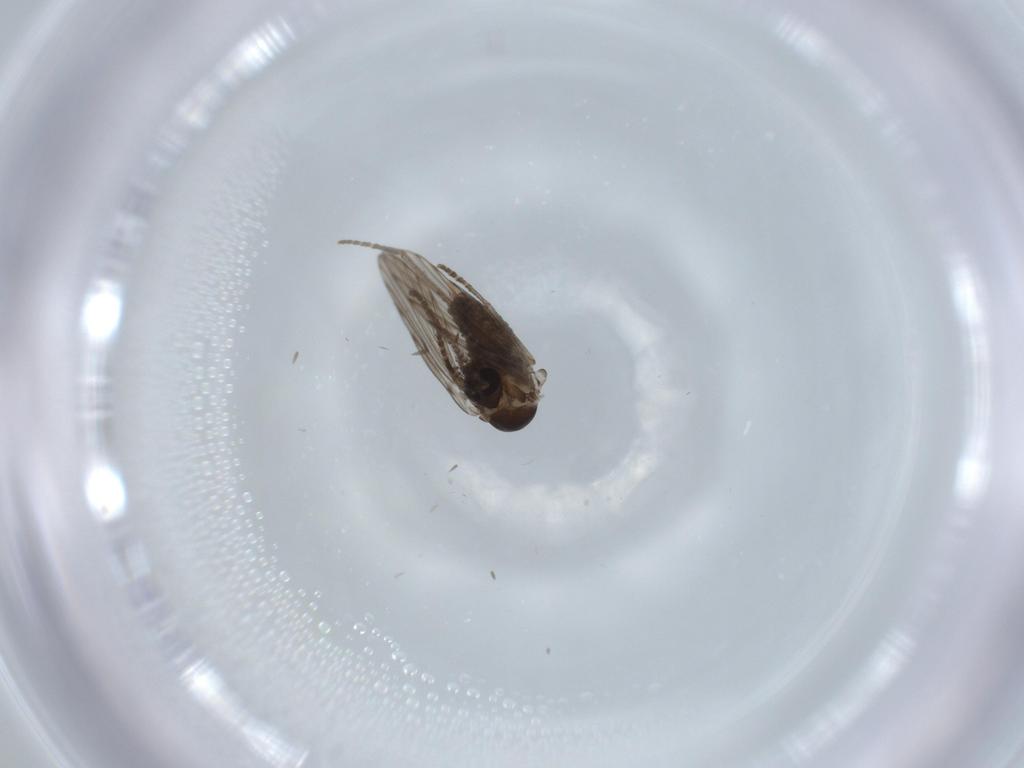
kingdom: Animalia
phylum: Arthropoda
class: Insecta
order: Diptera
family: Psychodidae
